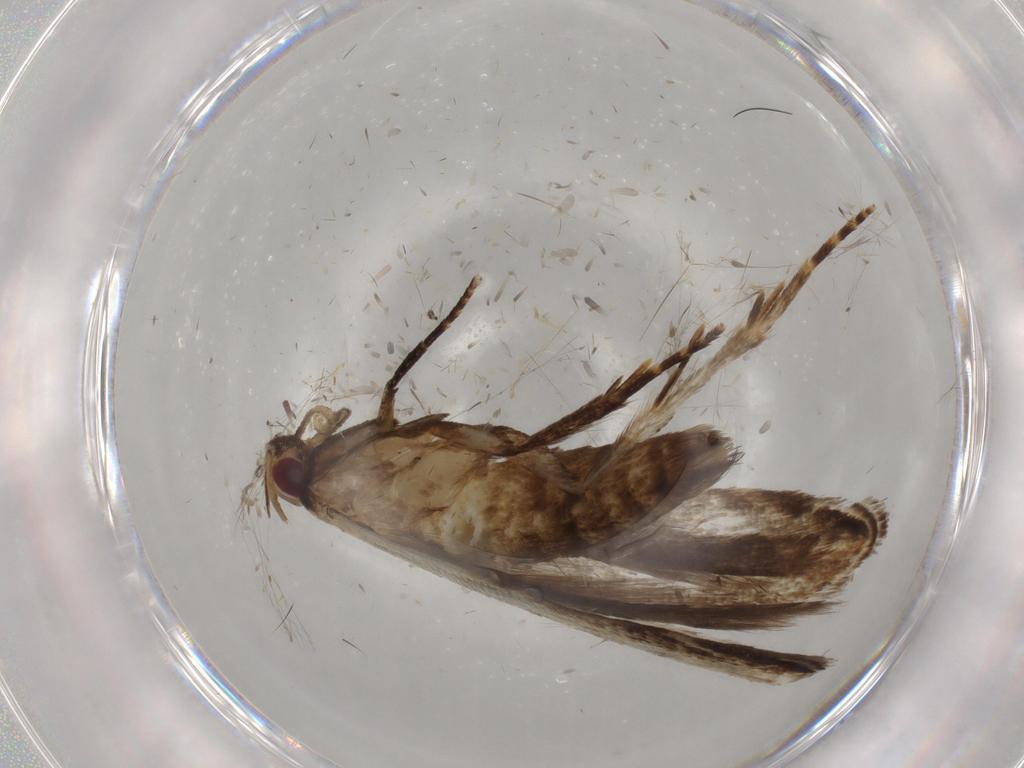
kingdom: Animalia
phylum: Arthropoda
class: Insecta
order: Lepidoptera
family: Gelechiidae
